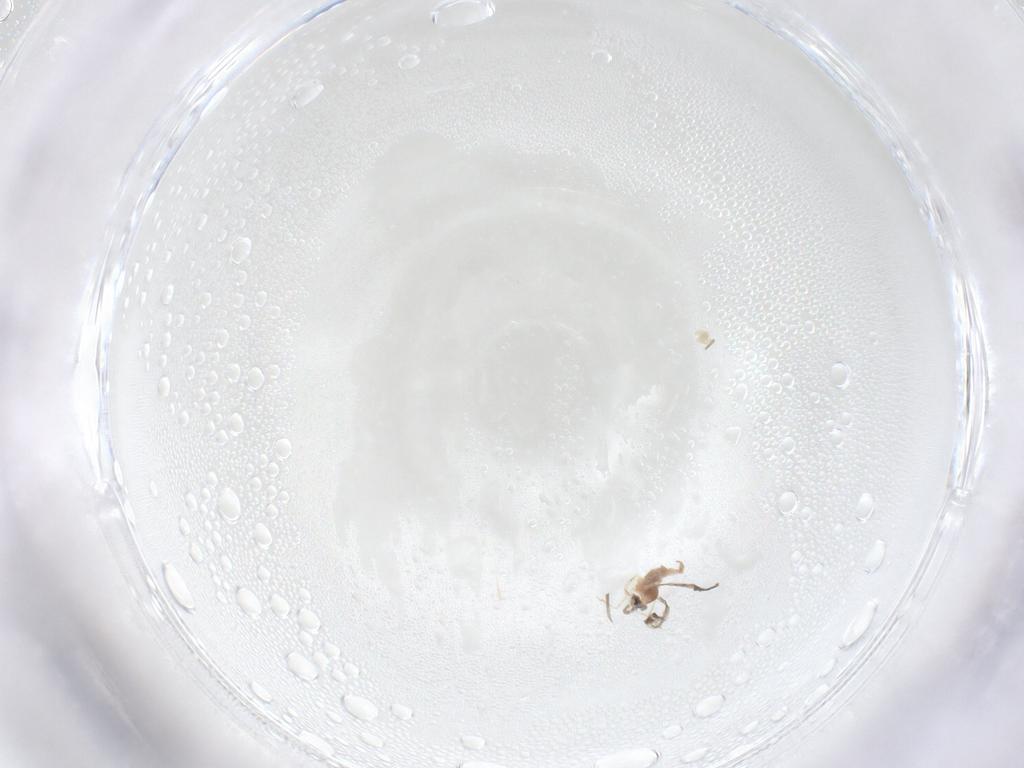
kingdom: Animalia
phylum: Arthropoda
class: Insecta
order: Diptera
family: Cecidomyiidae
